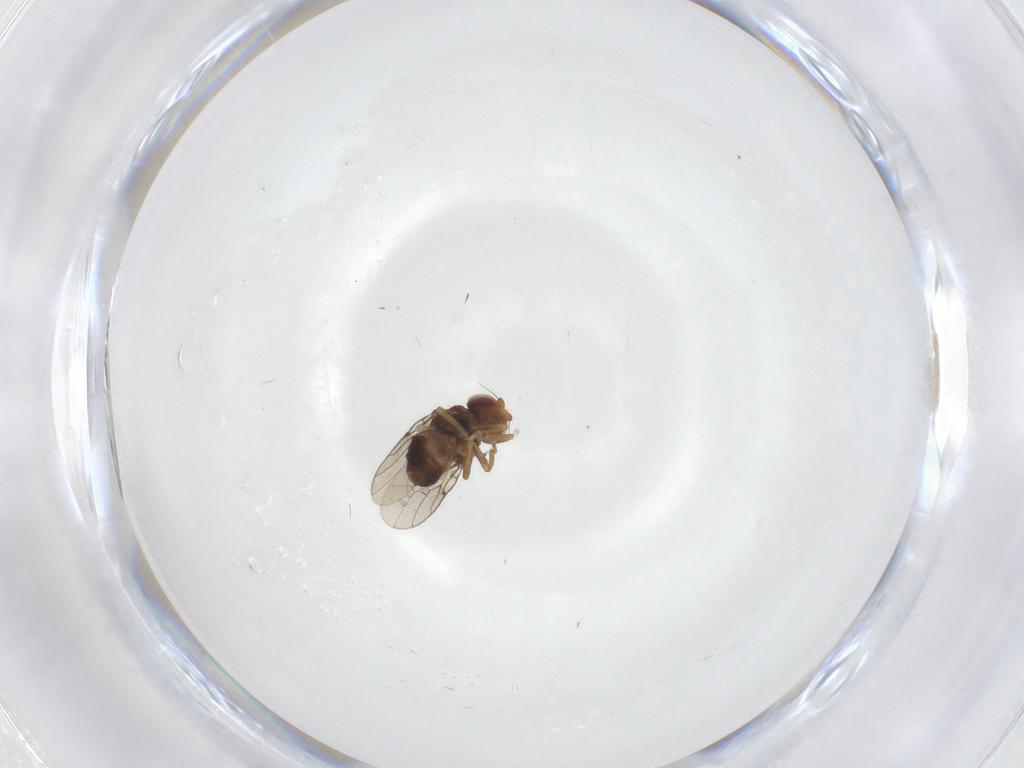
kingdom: Animalia
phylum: Arthropoda
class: Insecta
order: Diptera
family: Chloropidae
